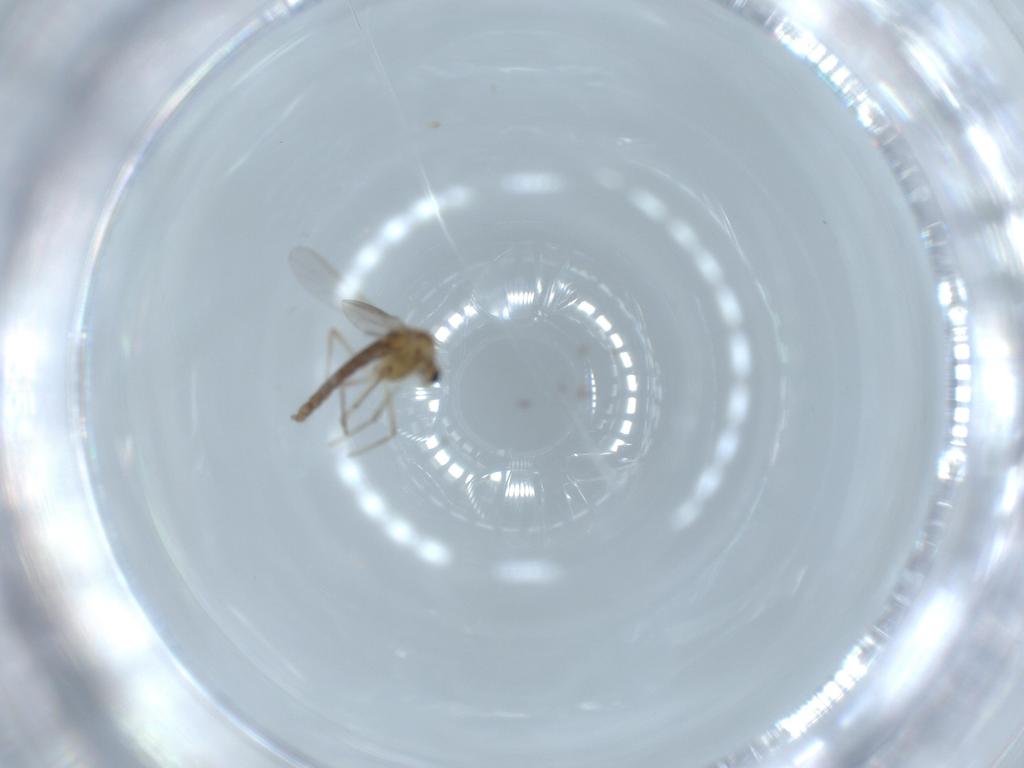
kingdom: Animalia
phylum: Arthropoda
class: Insecta
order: Diptera
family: Chironomidae
